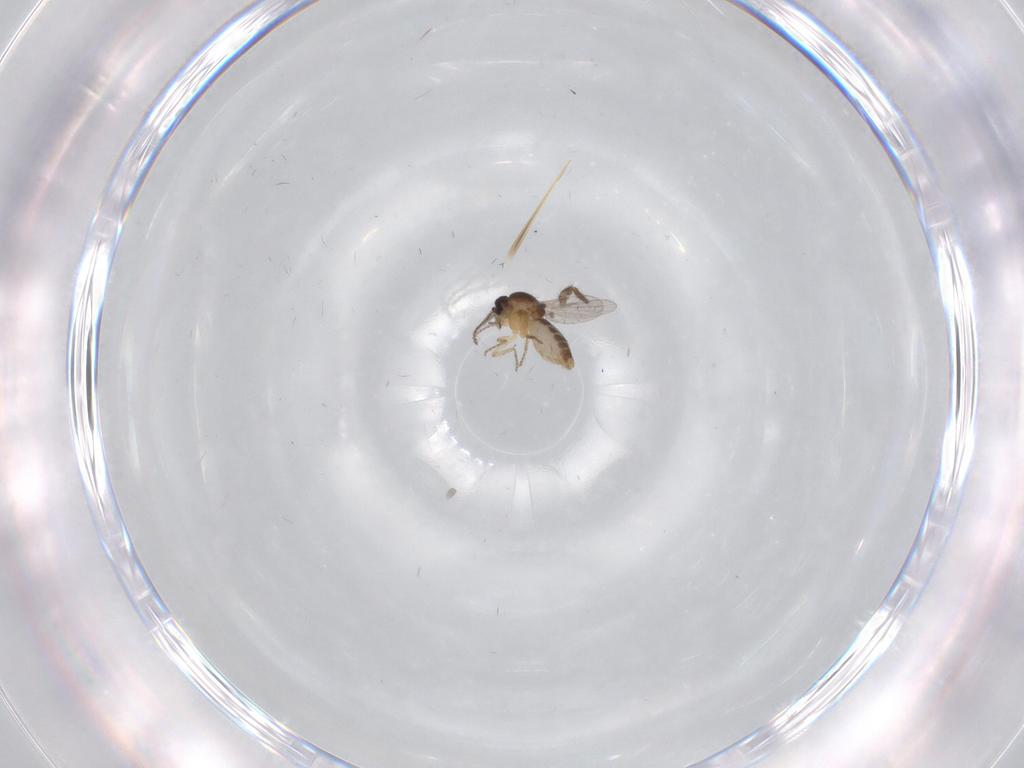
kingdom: Animalia
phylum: Arthropoda
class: Insecta
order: Diptera
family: Ceratopogonidae
